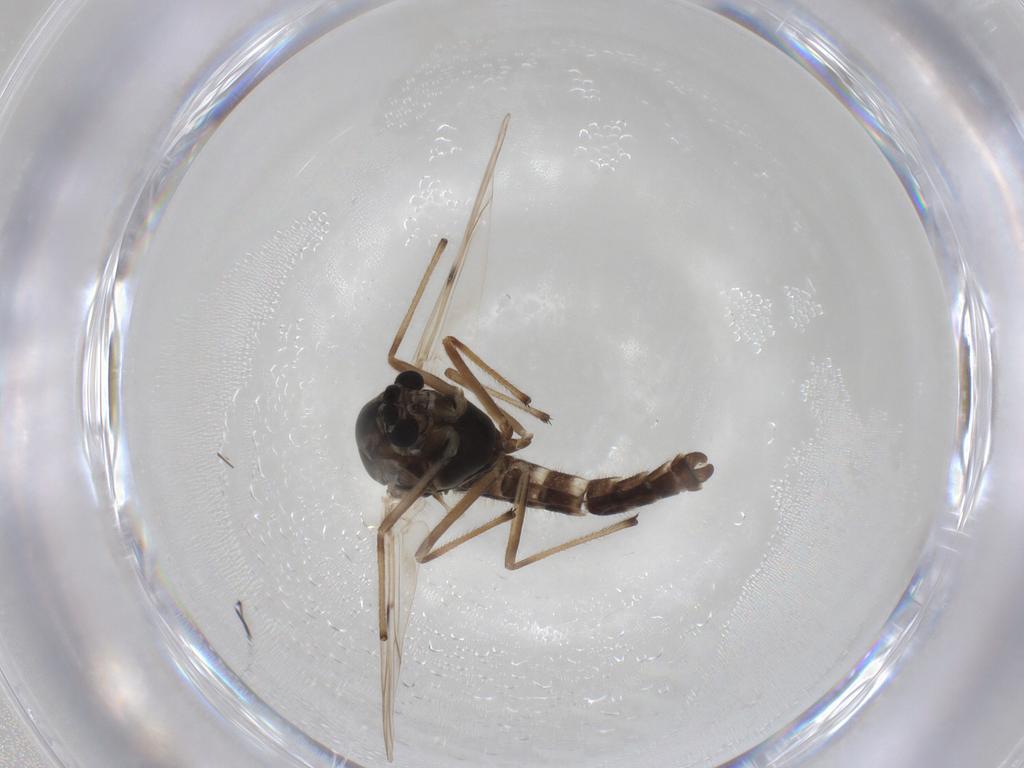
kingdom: Animalia
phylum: Arthropoda
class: Insecta
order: Diptera
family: Chironomidae
